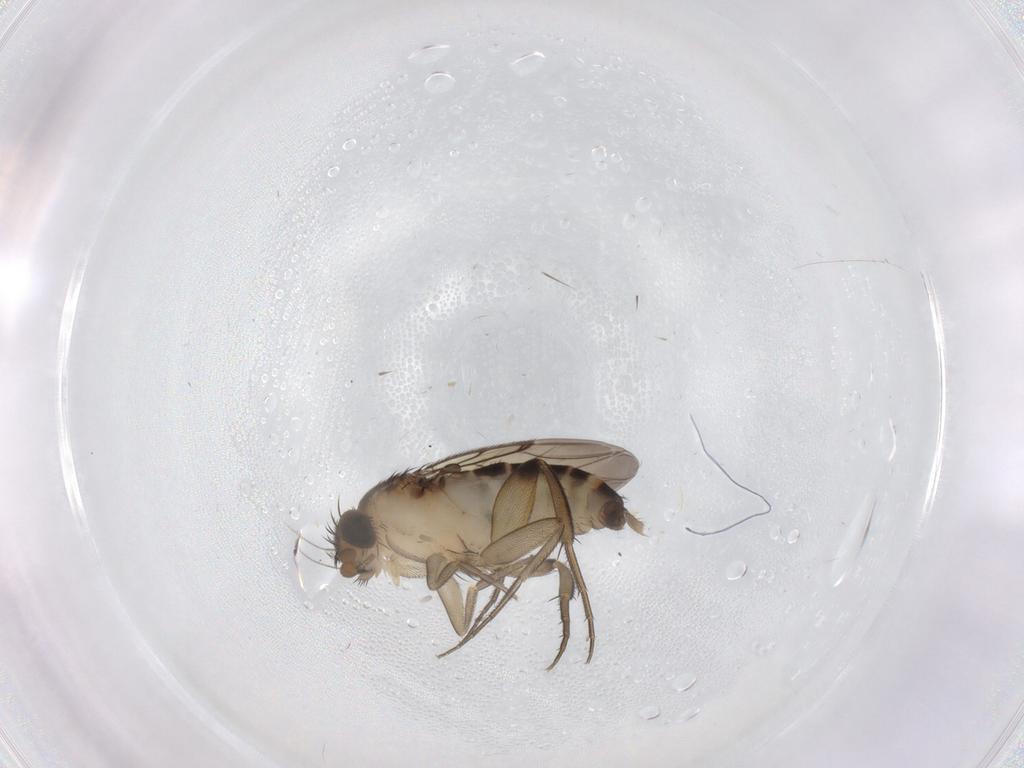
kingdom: Animalia
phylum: Arthropoda
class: Insecta
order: Diptera
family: Phoridae
